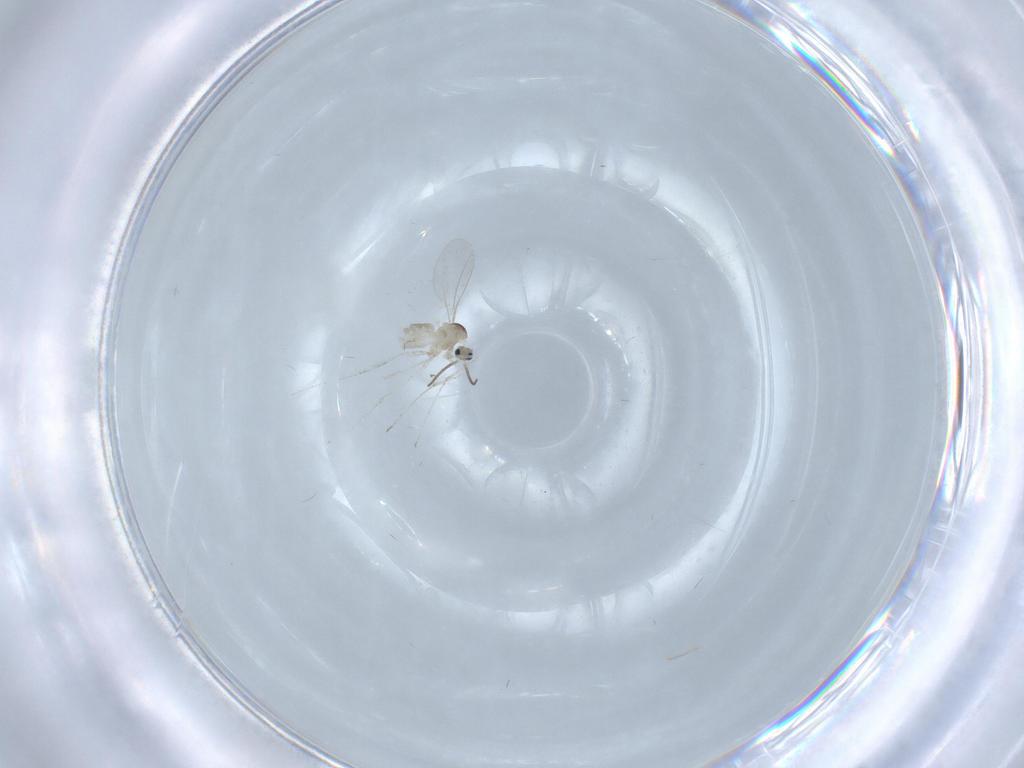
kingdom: Animalia
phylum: Arthropoda
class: Insecta
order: Diptera
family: Cecidomyiidae
